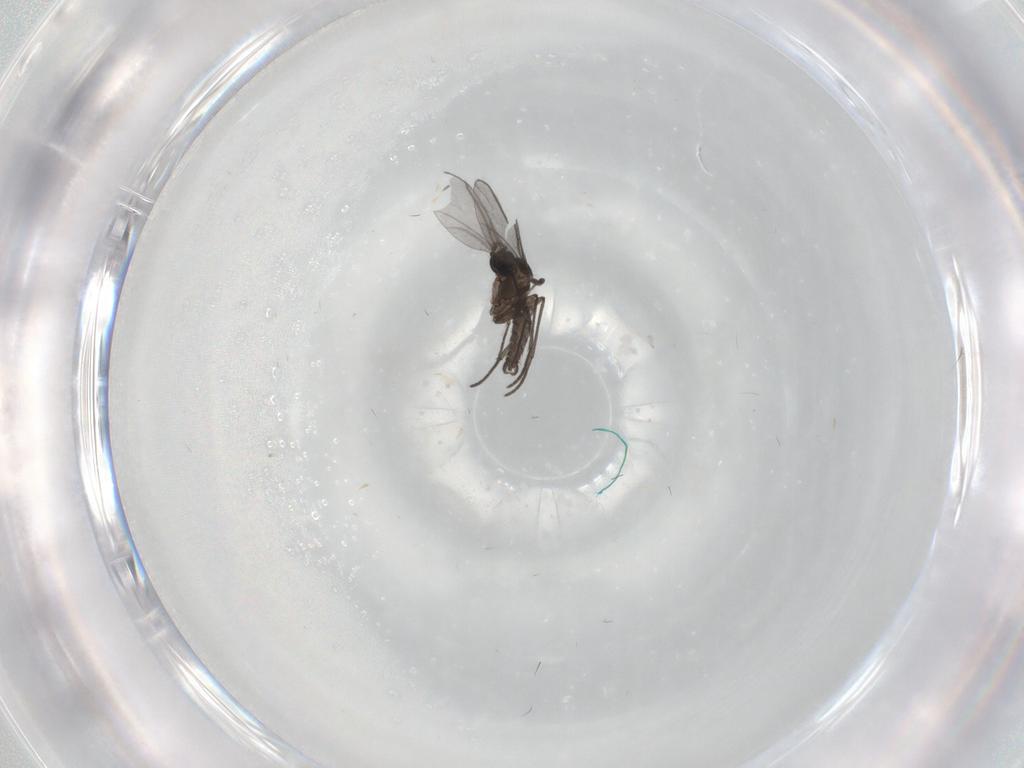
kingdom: Animalia
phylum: Arthropoda
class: Insecta
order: Diptera
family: Cecidomyiidae
